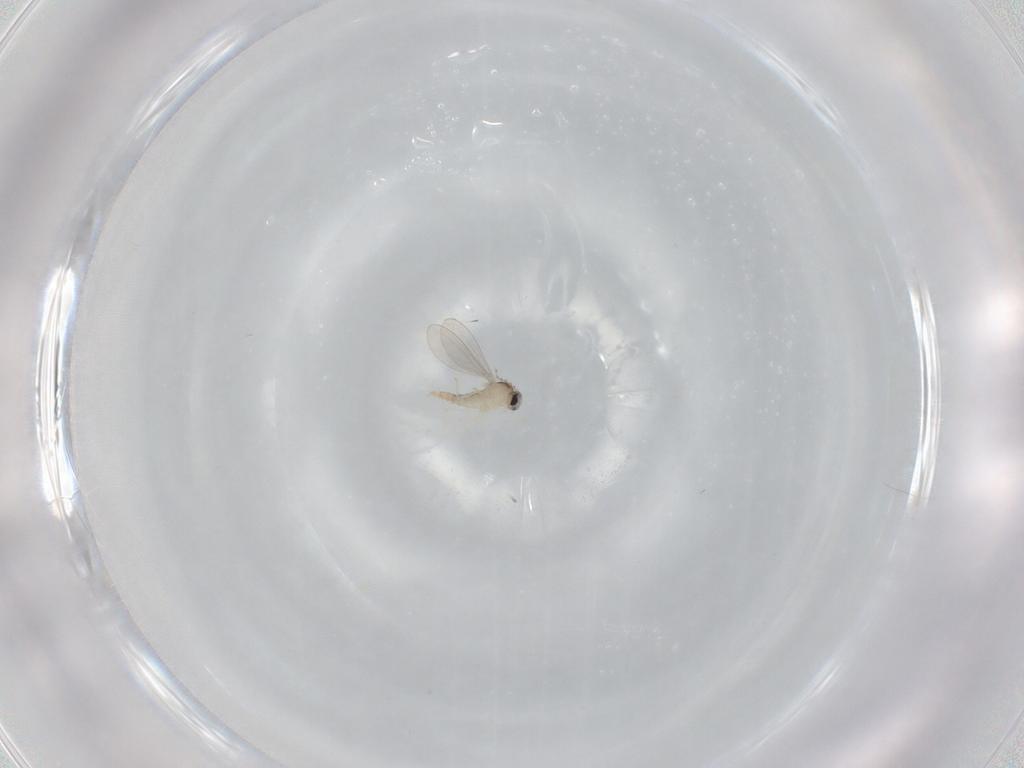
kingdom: Animalia
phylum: Arthropoda
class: Insecta
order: Diptera
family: Cecidomyiidae
